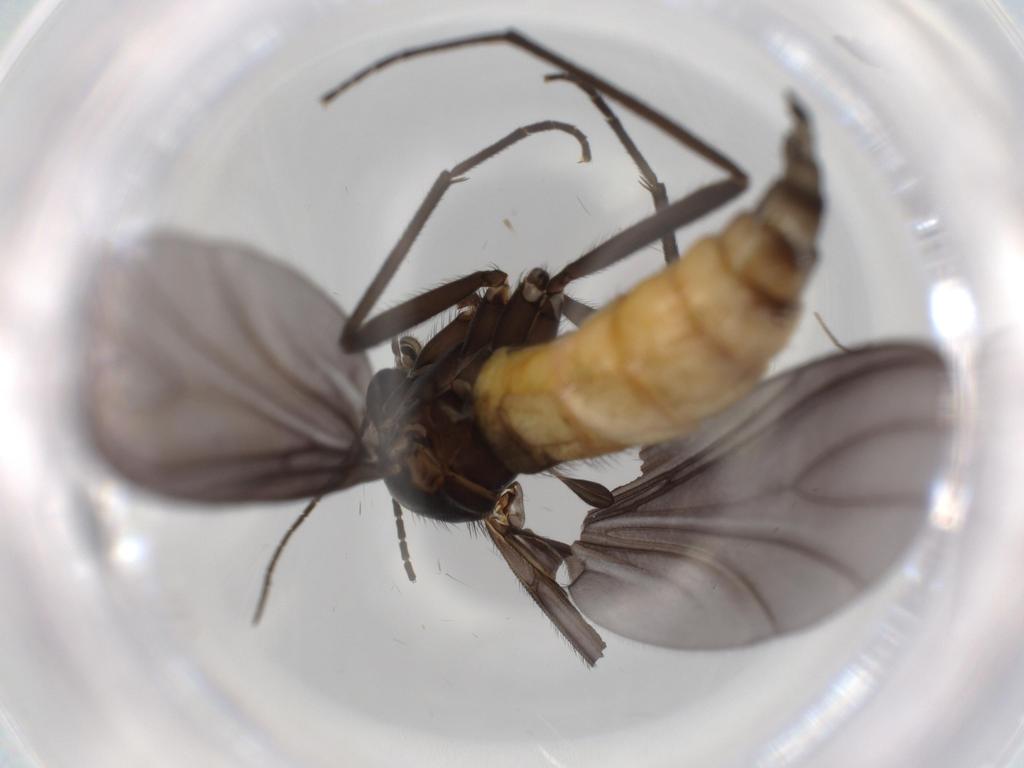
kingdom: Animalia
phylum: Arthropoda
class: Insecta
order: Diptera
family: Chironomidae
